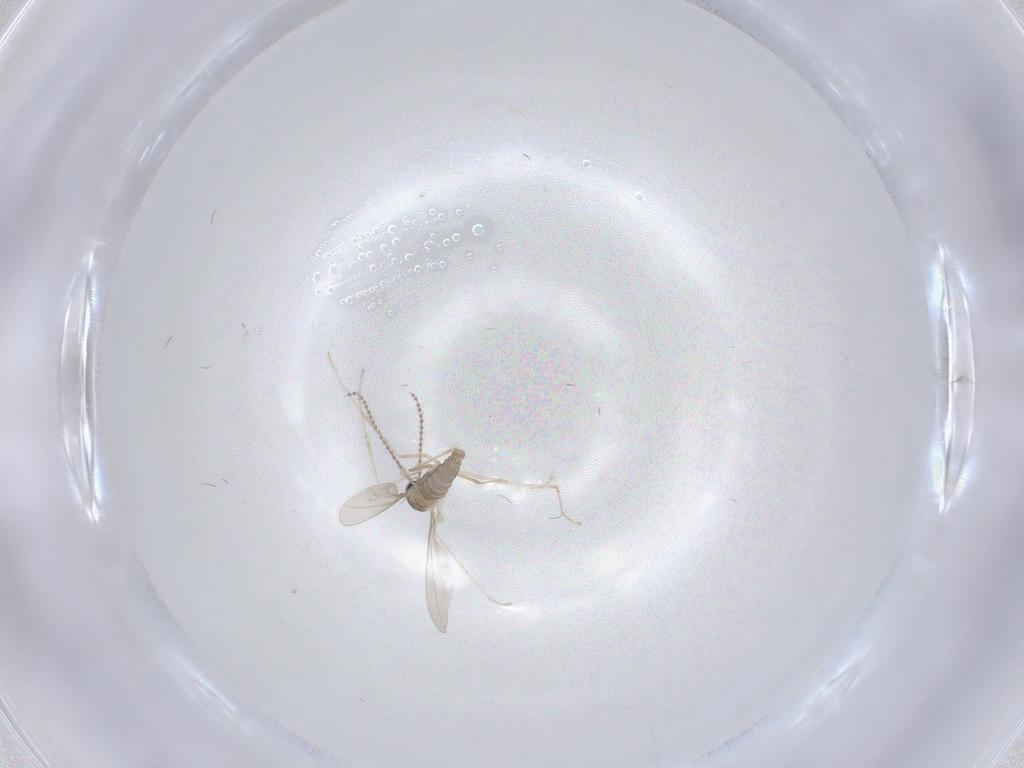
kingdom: Animalia
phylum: Arthropoda
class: Insecta
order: Diptera
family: Cecidomyiidae
